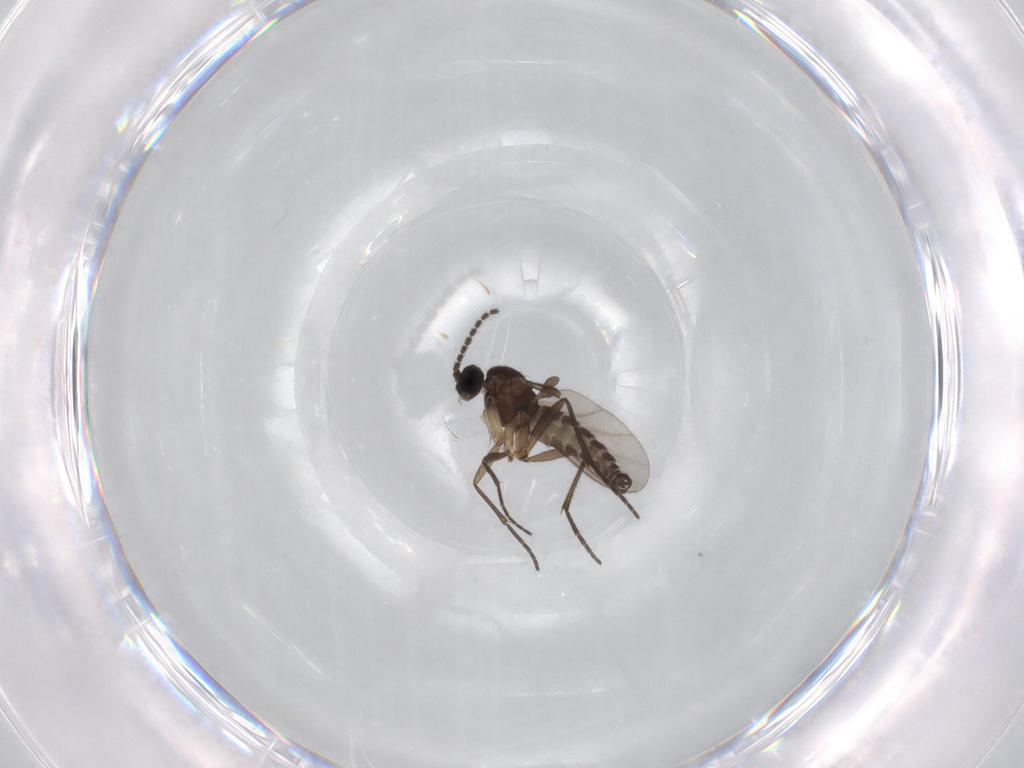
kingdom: Animalia
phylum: Arthropoda
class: Insecta
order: Diptera
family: Sciaridae
